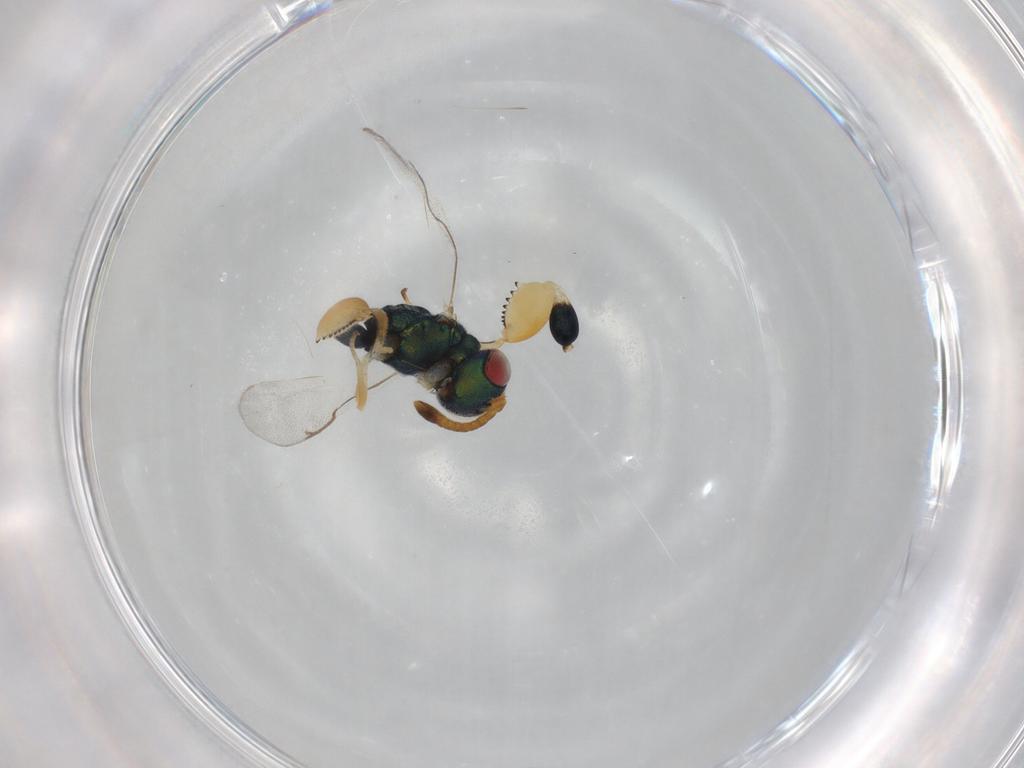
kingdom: Animalia
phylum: Arthropoda
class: Insecta
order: Hymenoptera
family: Torymidae
